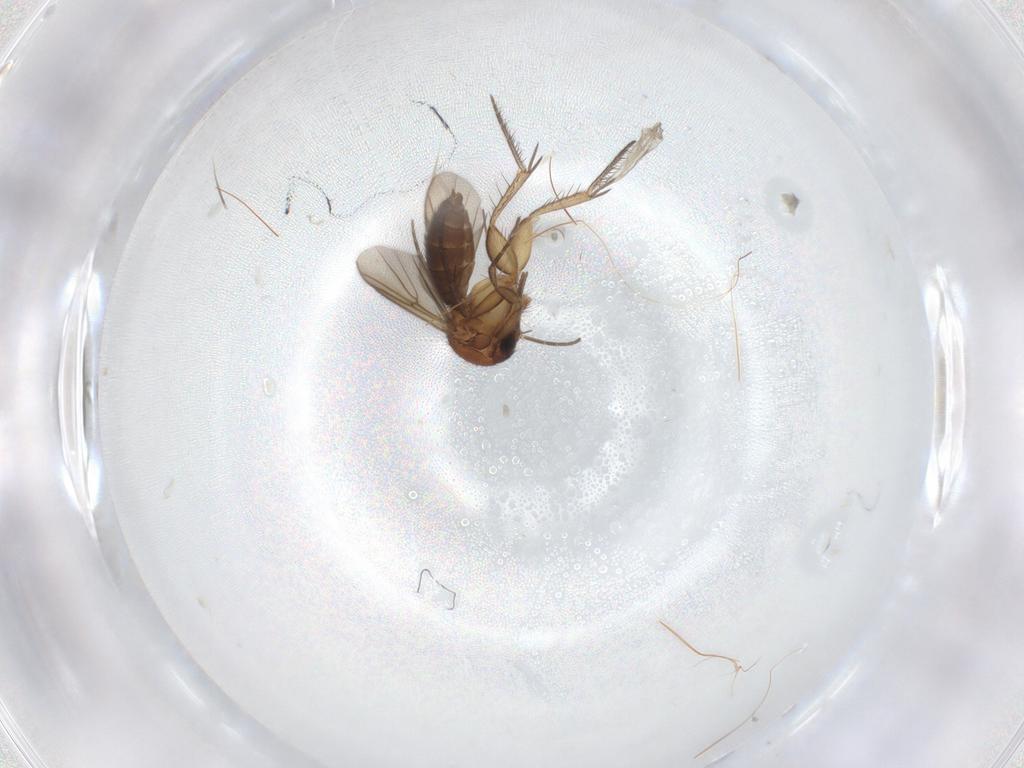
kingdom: Animalia
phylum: Arthropoda
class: Insecta
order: Diptera
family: Mycetophilidae
